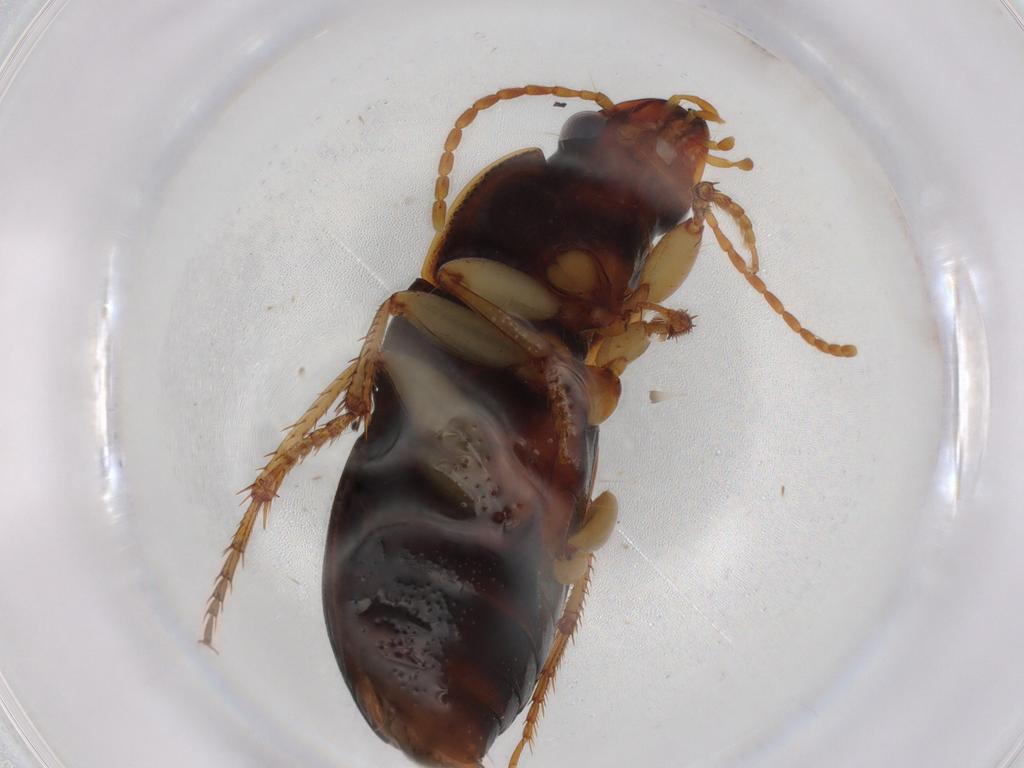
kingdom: Animalia
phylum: Arthropoda
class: Insecta
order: Coleoptera
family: Carabidae
